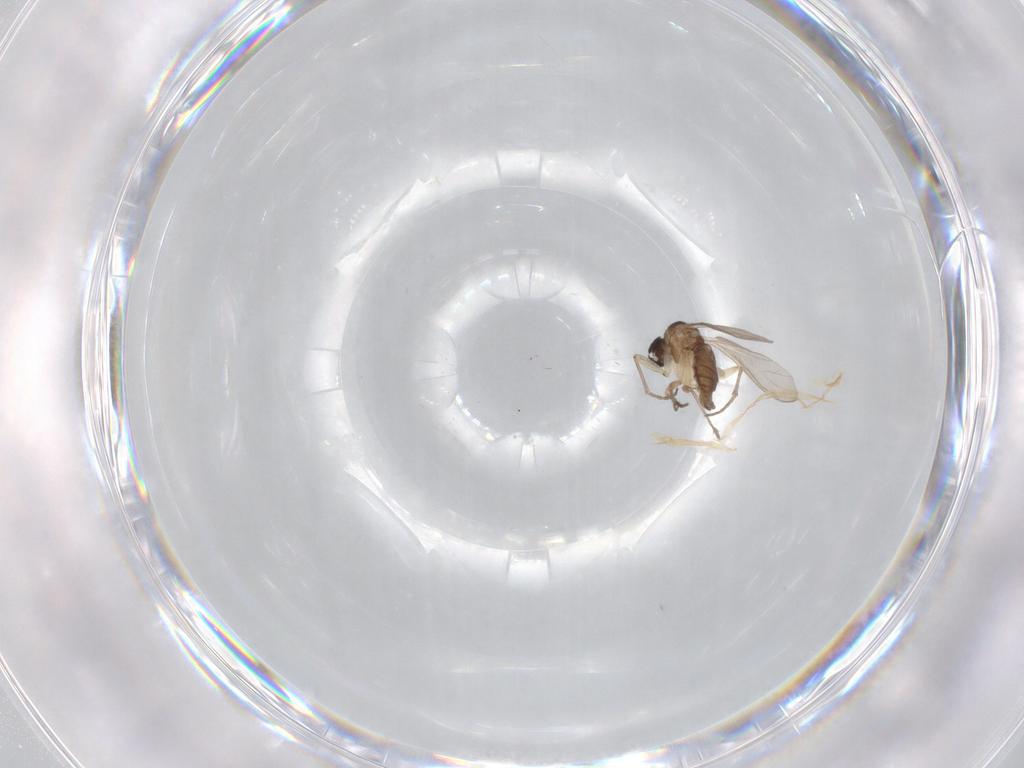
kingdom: Animalia
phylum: Arthropoda
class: Insecta
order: Diptera
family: Sciaridae
